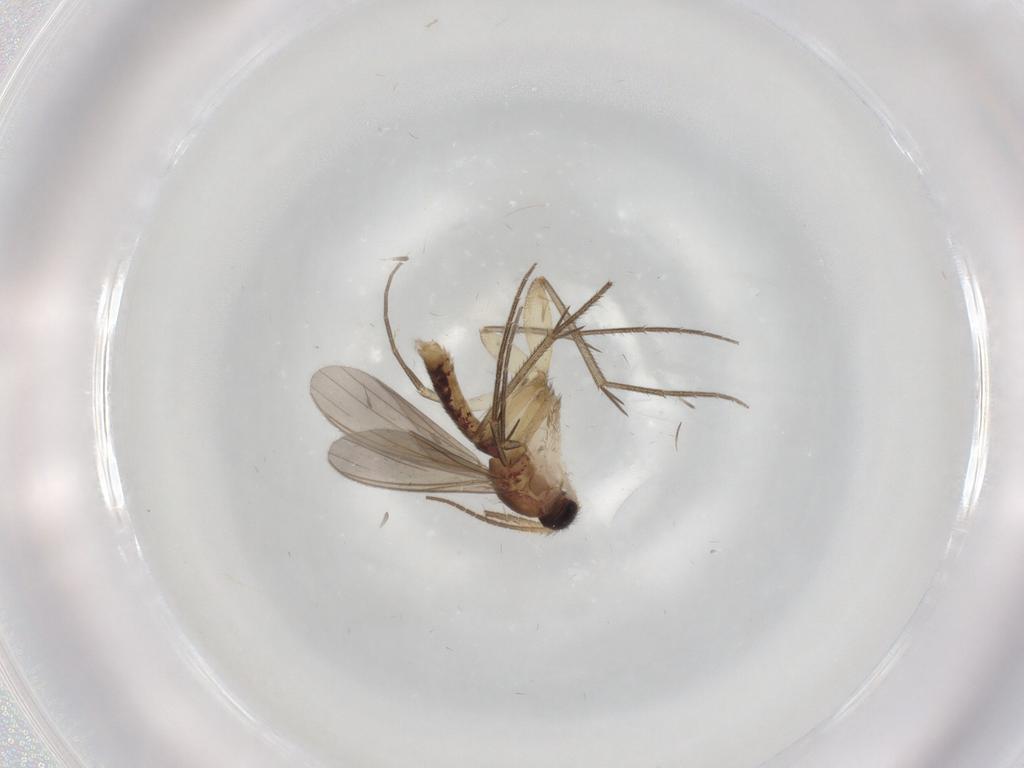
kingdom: Animalia
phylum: Arthropoda
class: Insecta
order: Diptera
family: Mycetophilidae
